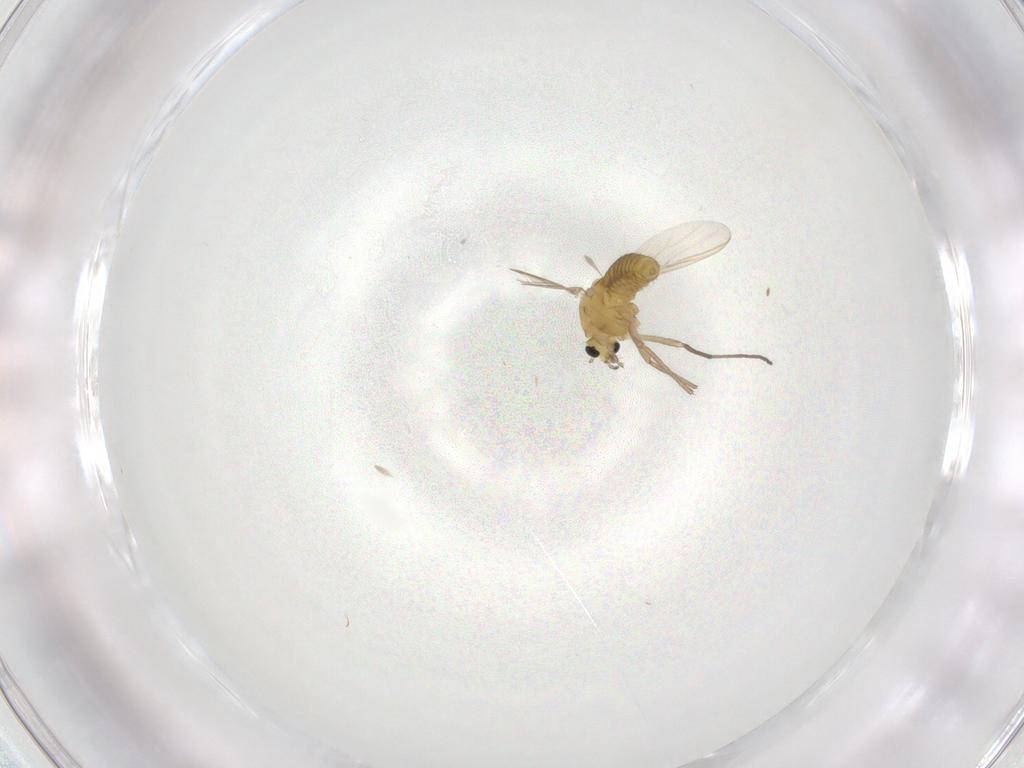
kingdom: Animalia
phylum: Arthropoda
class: Insecta
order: Diptera
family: Chironomidae
